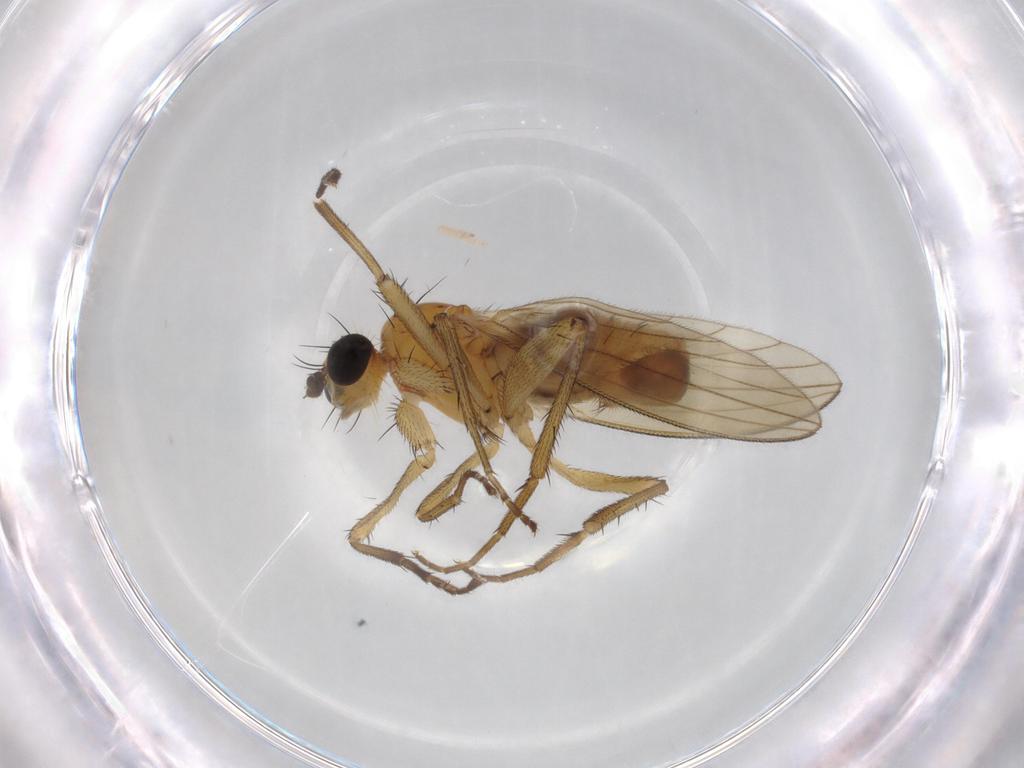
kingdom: Animalia
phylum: Arthropoda
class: Insecta
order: Diptera
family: Lonchopteridae
